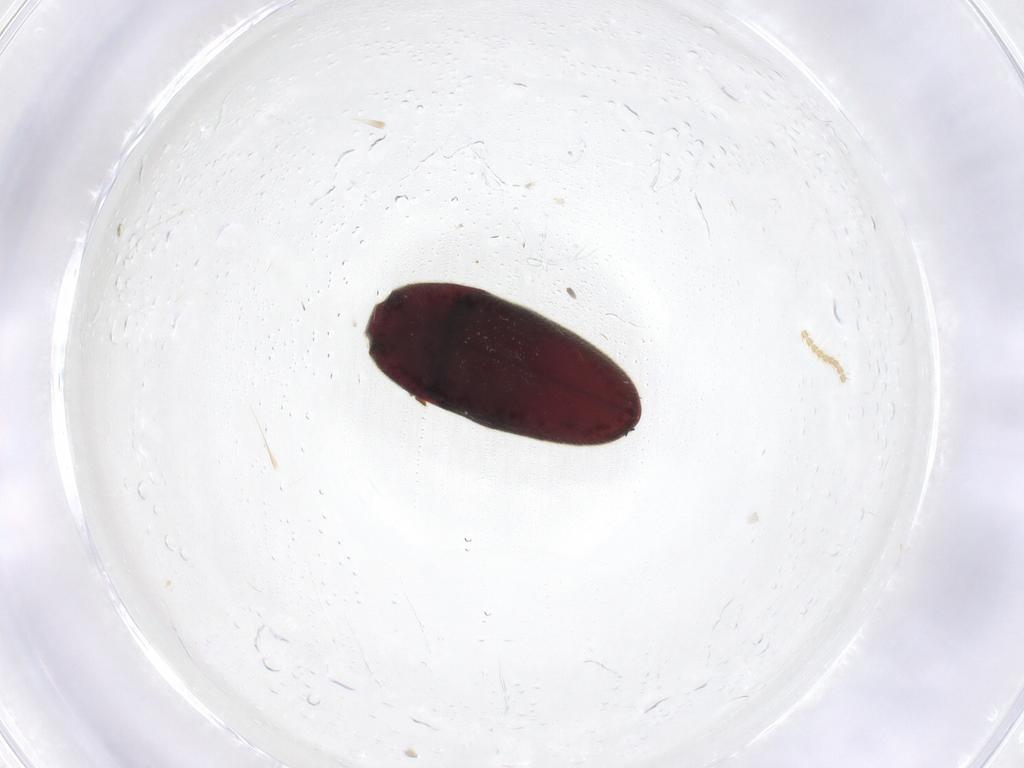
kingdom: Animalia
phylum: Arthropoda
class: Insecta
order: Coleoptera
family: Throscidae
